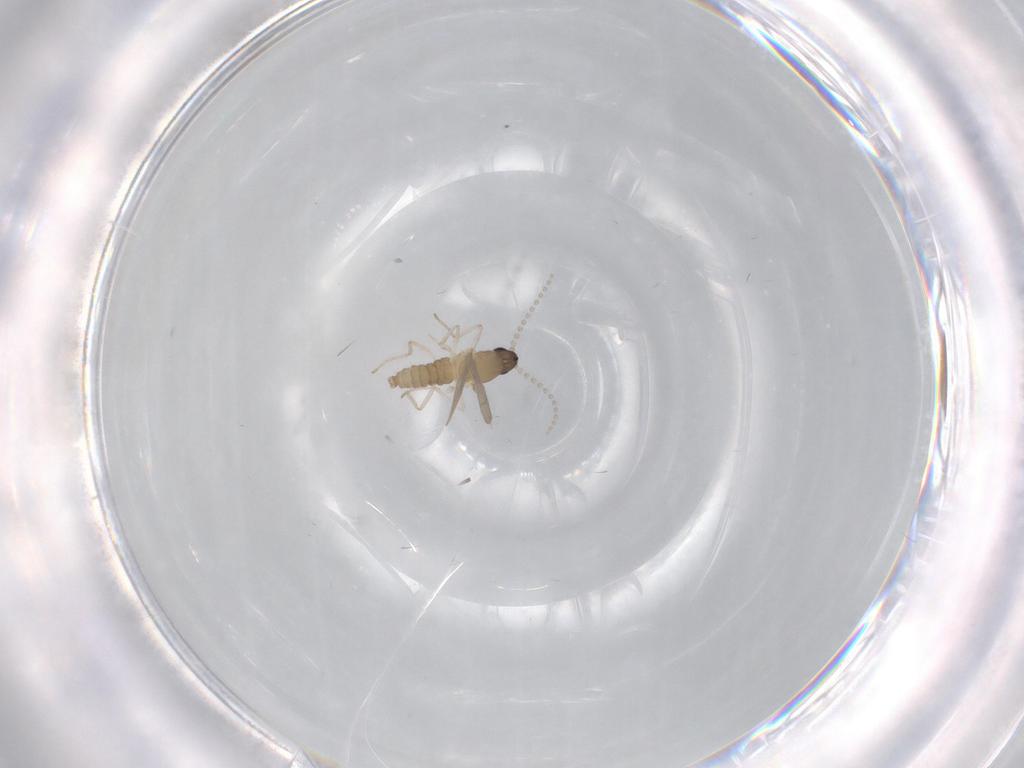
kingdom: Animalia
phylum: Arthropoda
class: Insecta
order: Diptera
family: Cecidomyiidae
